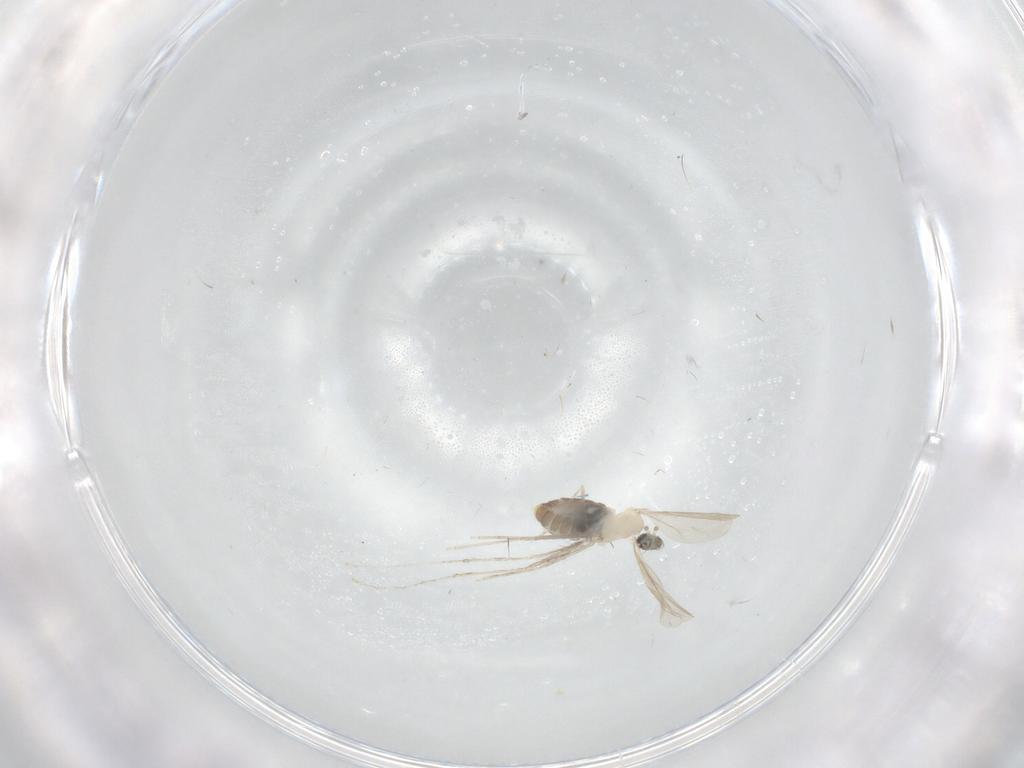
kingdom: Animalia
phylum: Arthropoda
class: Insecta
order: Diptera
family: Cecidomyiidae
